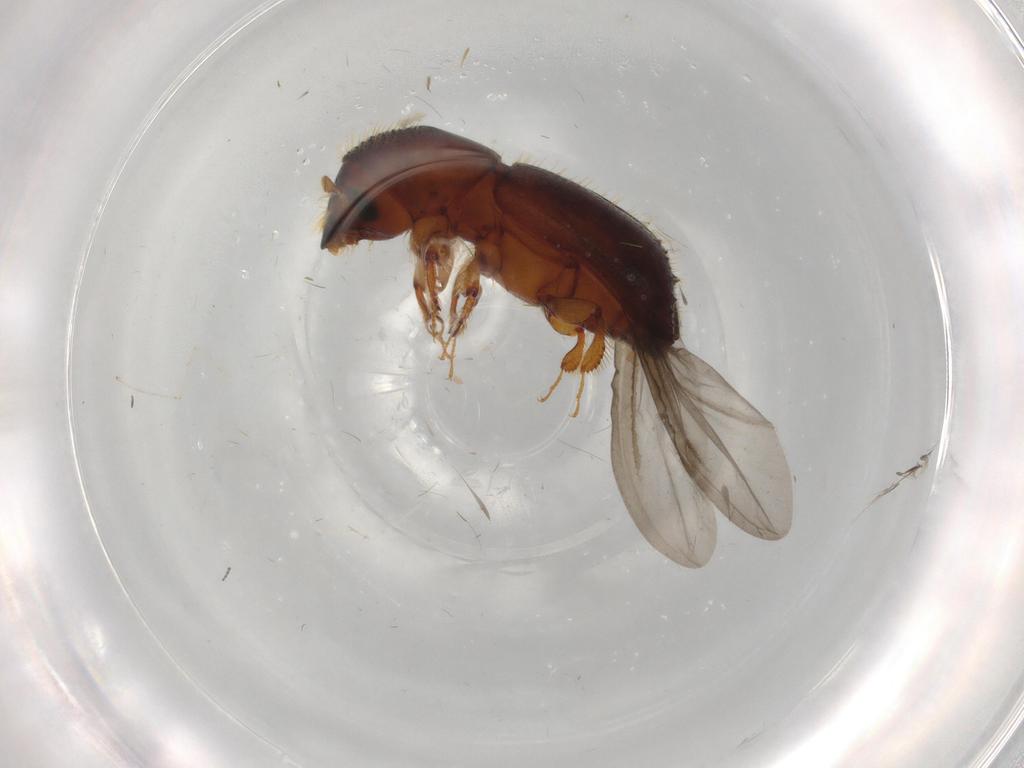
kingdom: Animalia
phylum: Arthropoda
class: Insecta
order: Coleoptera
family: Curculionidae
